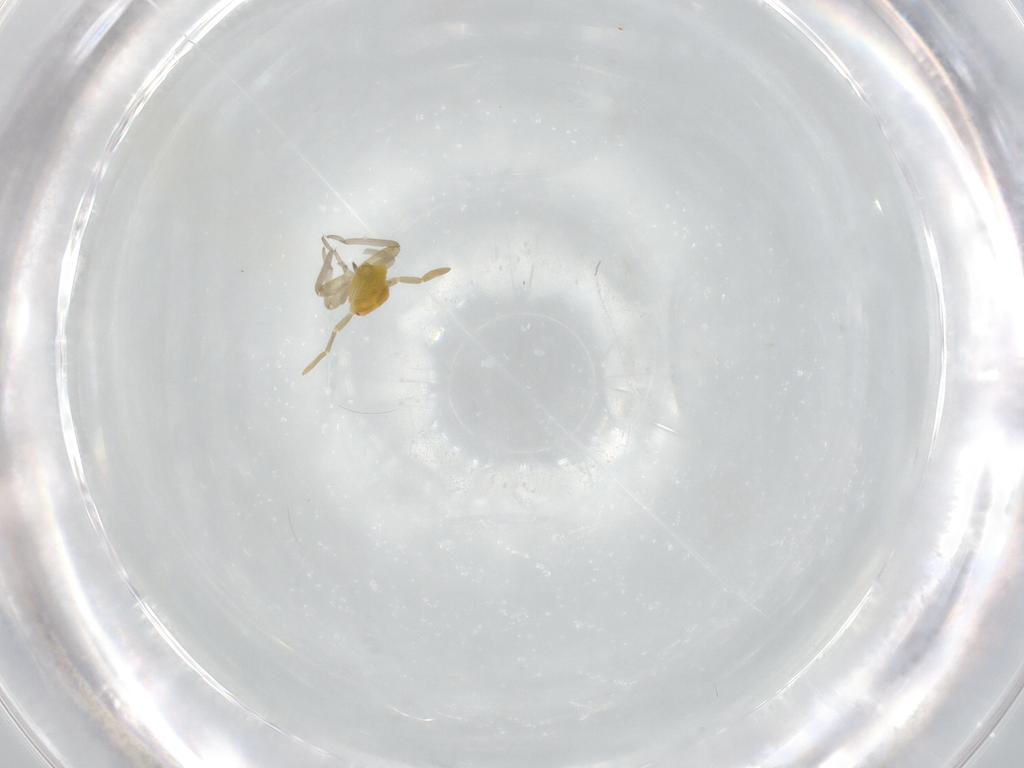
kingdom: Animalia
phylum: Arthropoda
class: Insecta
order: Hemiptera
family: Miridae
